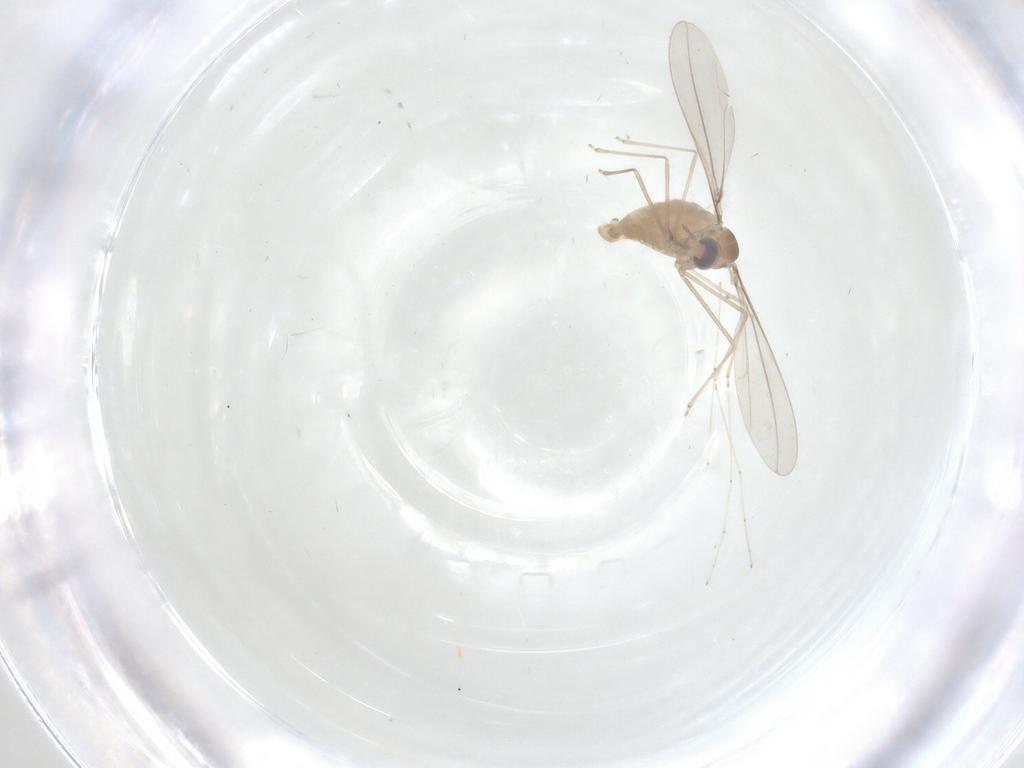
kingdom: Animalia
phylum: Arthropoda
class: Insecta
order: Diptera
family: Cecidomyiidae
